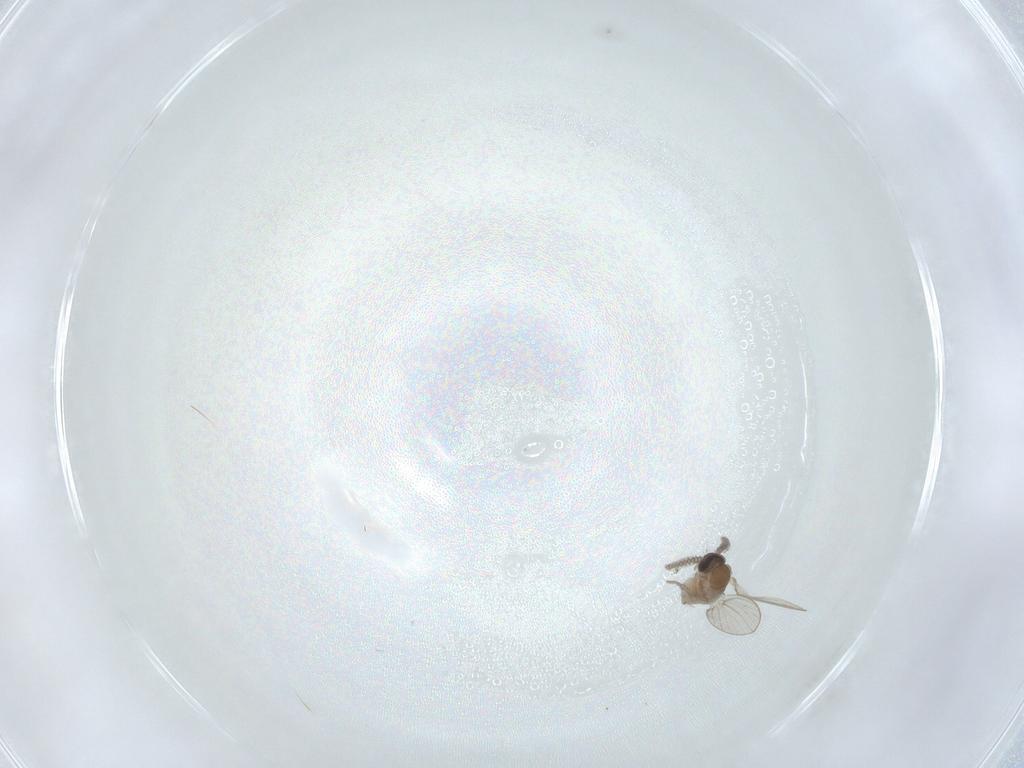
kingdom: Animalia
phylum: Arthropoda
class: Insecta
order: Diptera
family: Psychodidae
